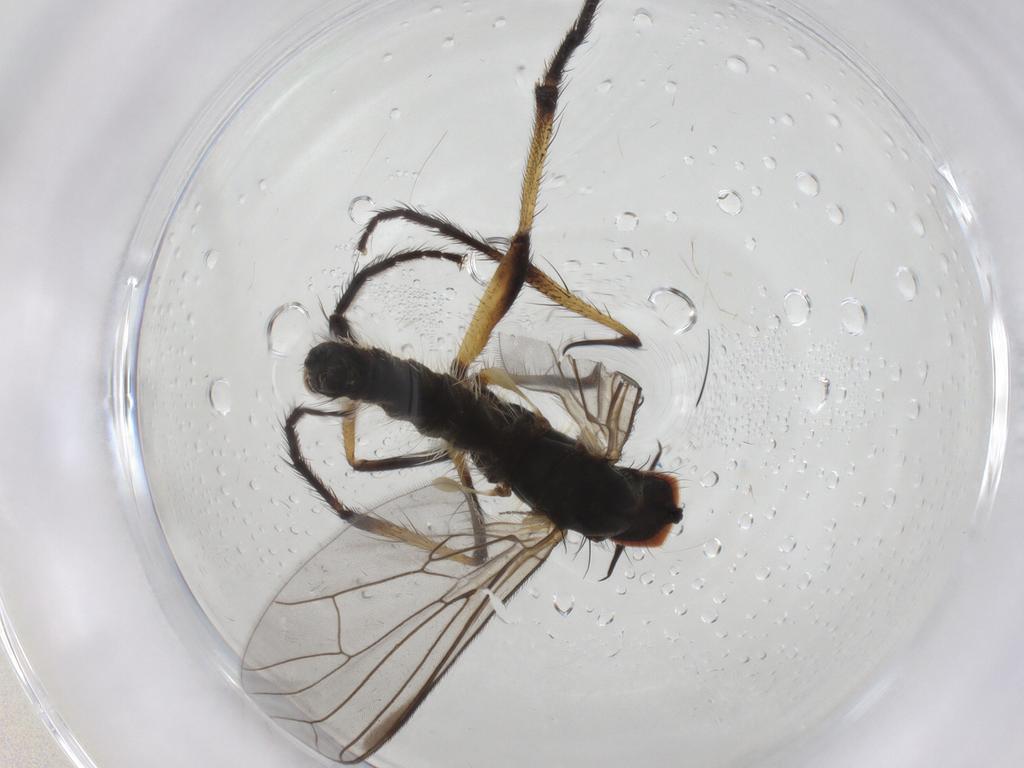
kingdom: Animalia
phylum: Arthropoda
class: Insecta
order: Diptera
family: Empididae
